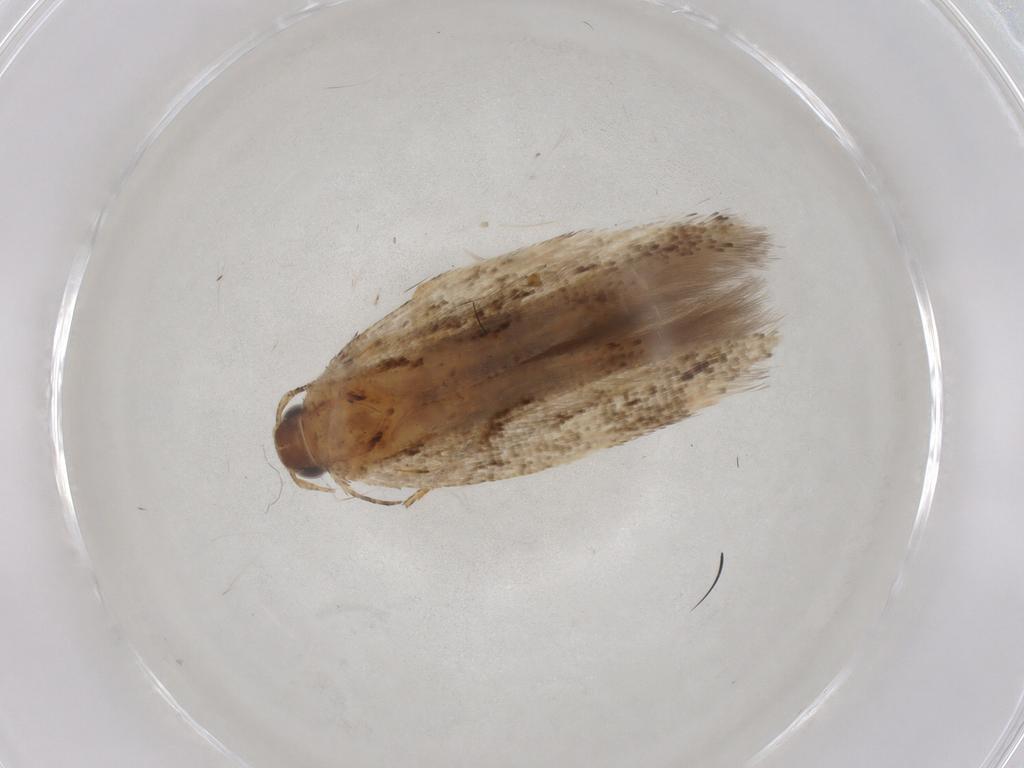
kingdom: Animalia
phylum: Arthropoda
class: Insecta
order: Lepidoptera
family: Gelechiidae
